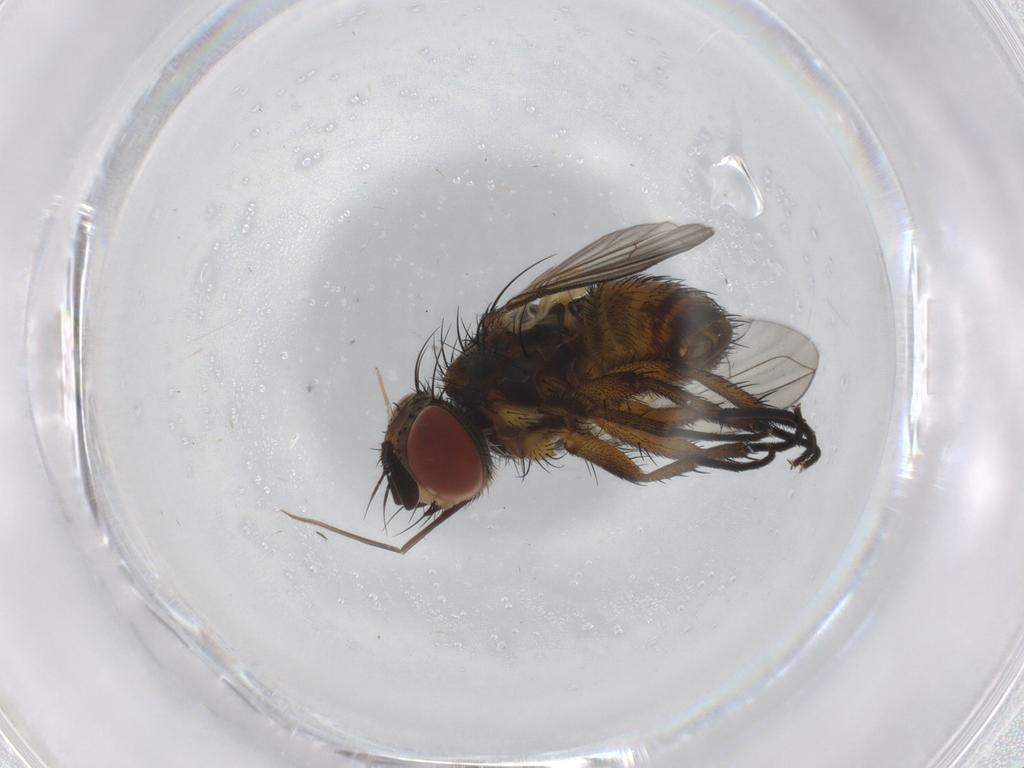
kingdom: Animalia
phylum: Arthropoda
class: Insecta
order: Diptera
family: Tachinidae
